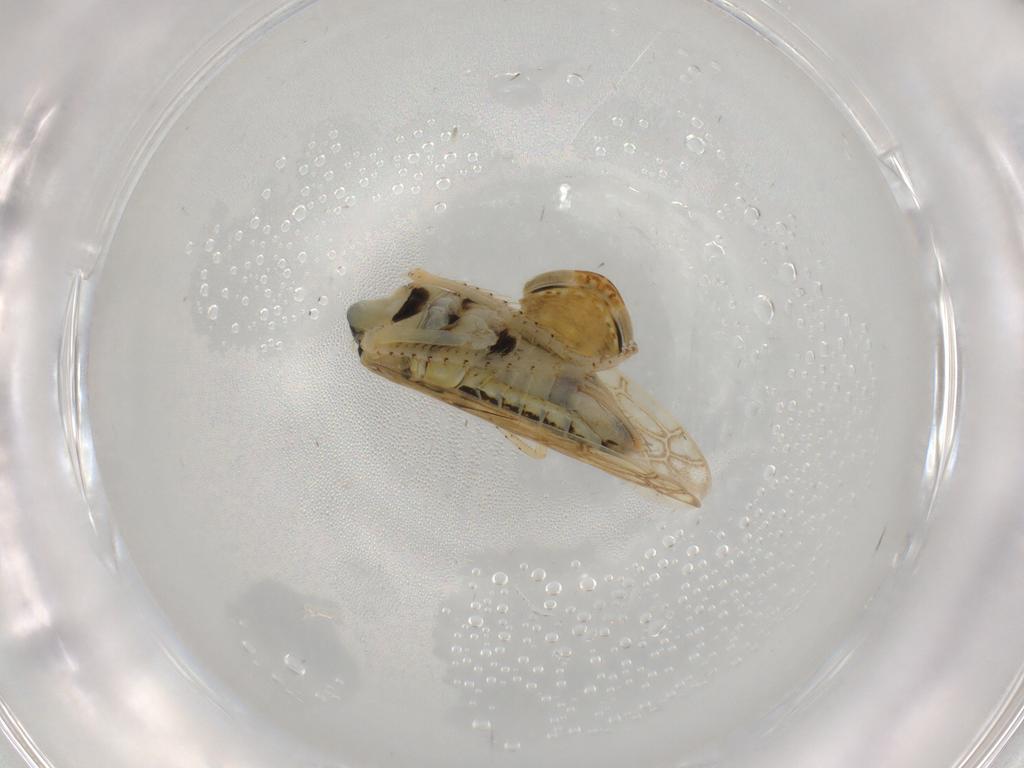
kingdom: Animalia
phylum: Arthropoda
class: Insecta
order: Hemiptera
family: Cicadellidae
